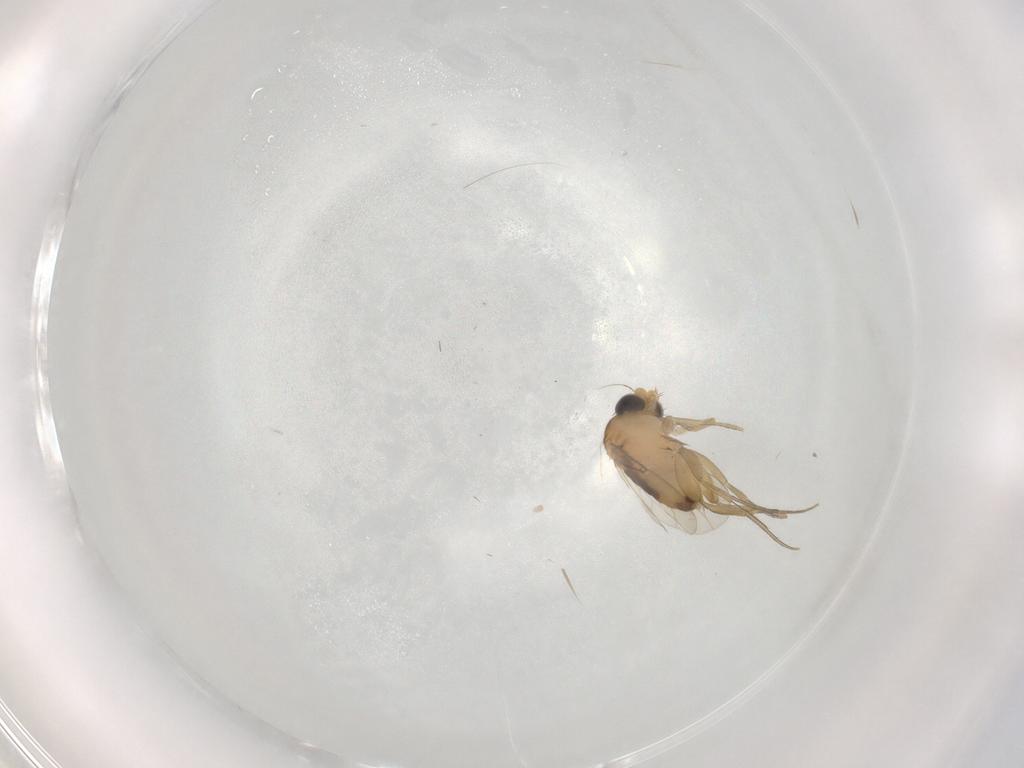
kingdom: Animalia
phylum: Arthropoda
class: Insecta
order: Diptera
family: Phoridae
